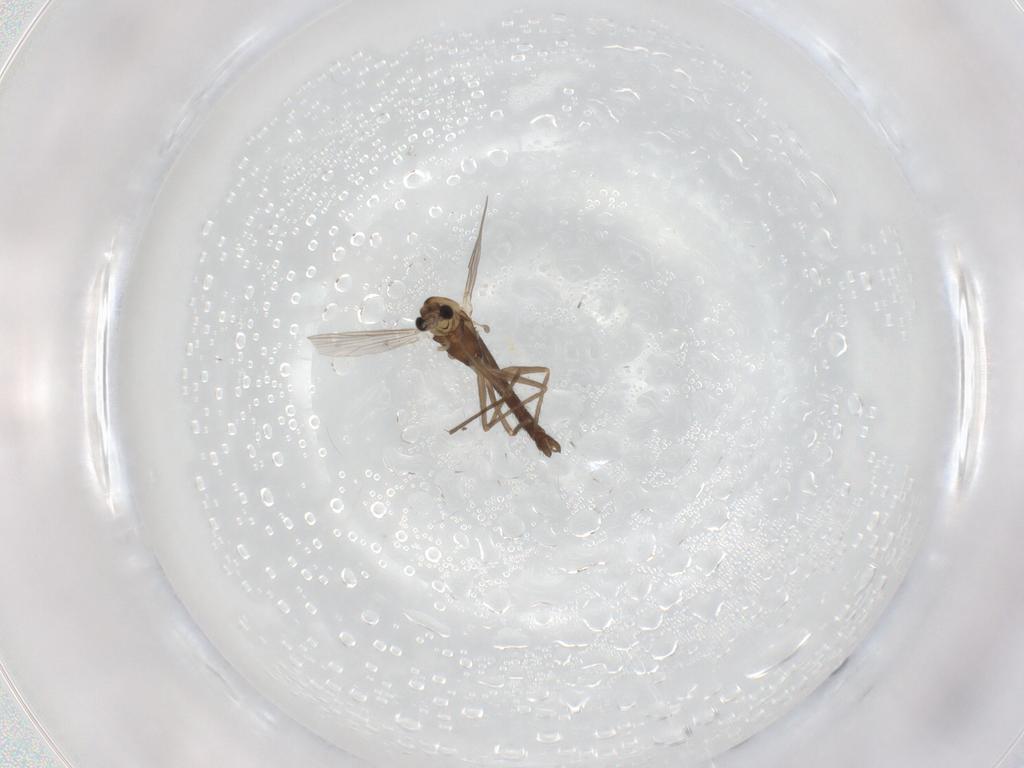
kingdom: Animalia
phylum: Arthropoda
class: Insecta
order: Diptera
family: Chironomidae
